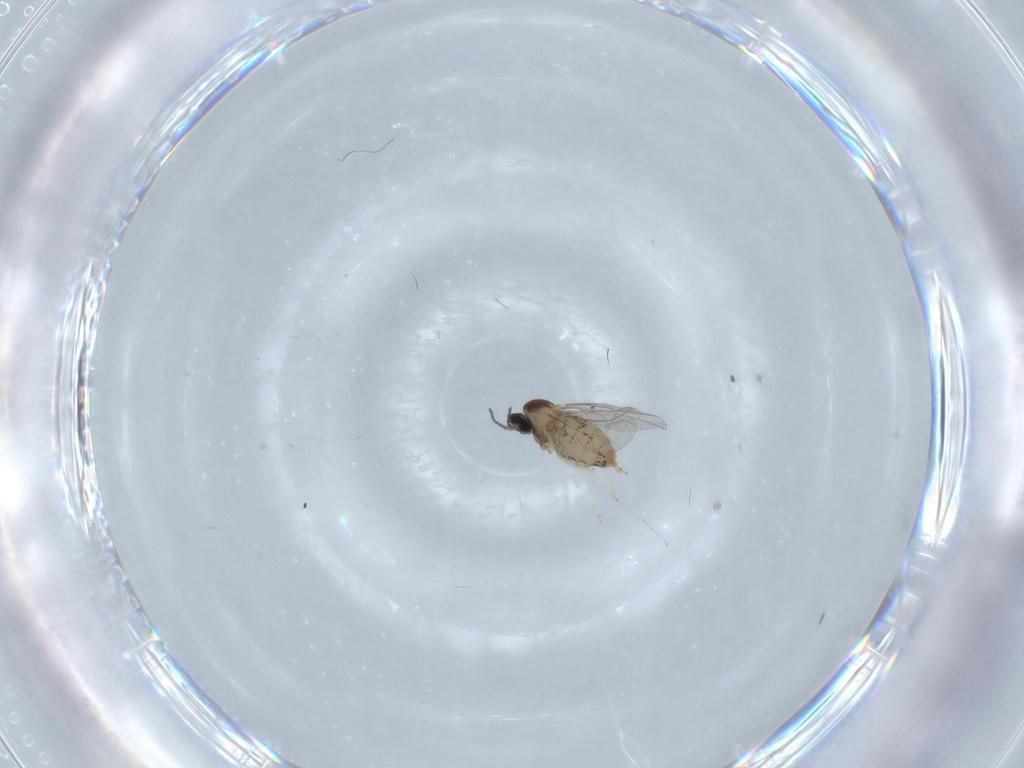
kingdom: Animalia
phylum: Arthropoda
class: Insecta
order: Diptera
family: Cecidomyiidae
